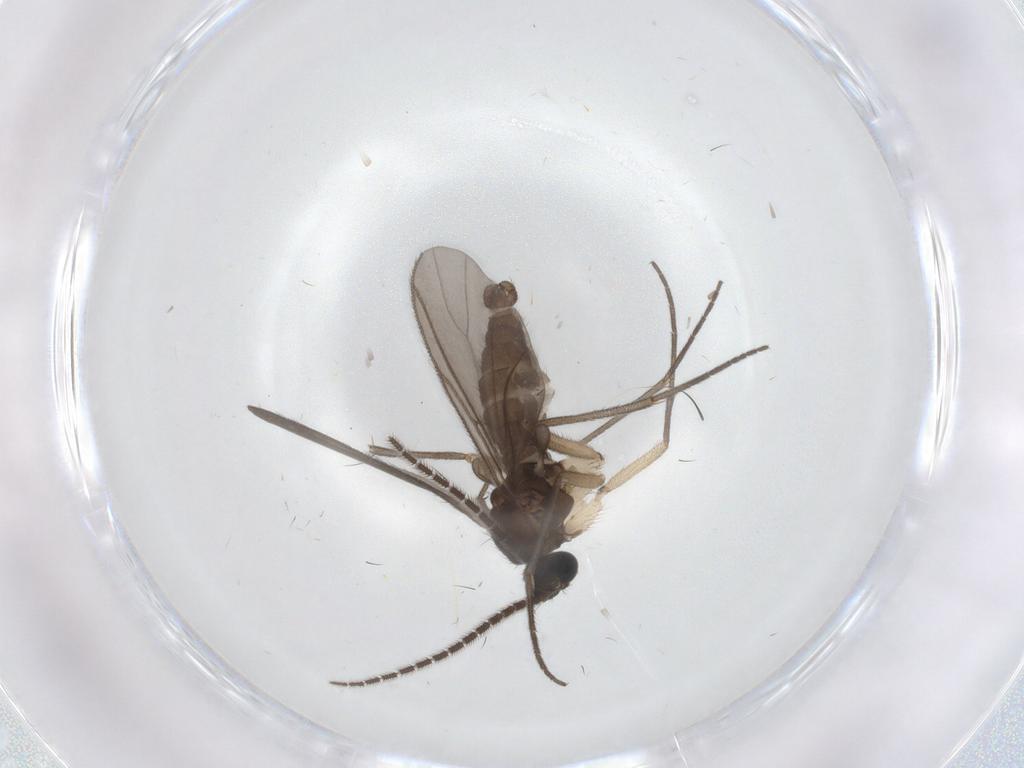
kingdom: Animalia
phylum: Arthropoda
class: Insecta
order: Diptera
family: Sciaridae
